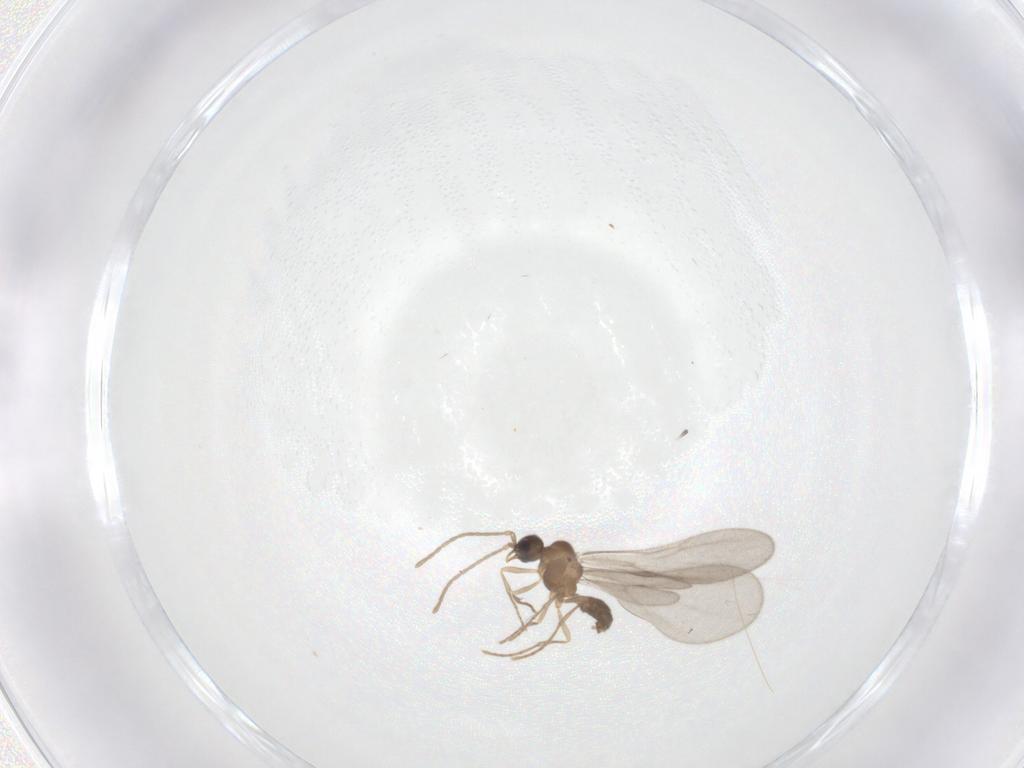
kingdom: Animalia
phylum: Arthropoda
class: Insecta
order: Hymenoptera
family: Formicidae
